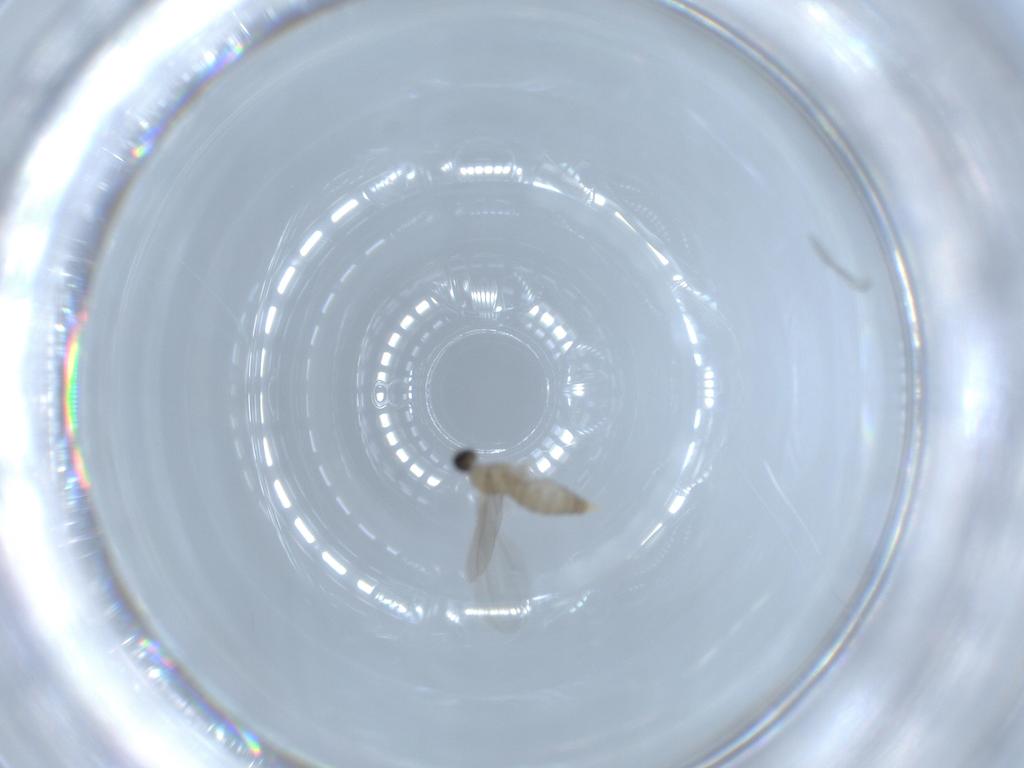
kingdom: Animalia
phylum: Arthropoda
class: Insecta
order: Diptera
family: Cecidomyiidae
